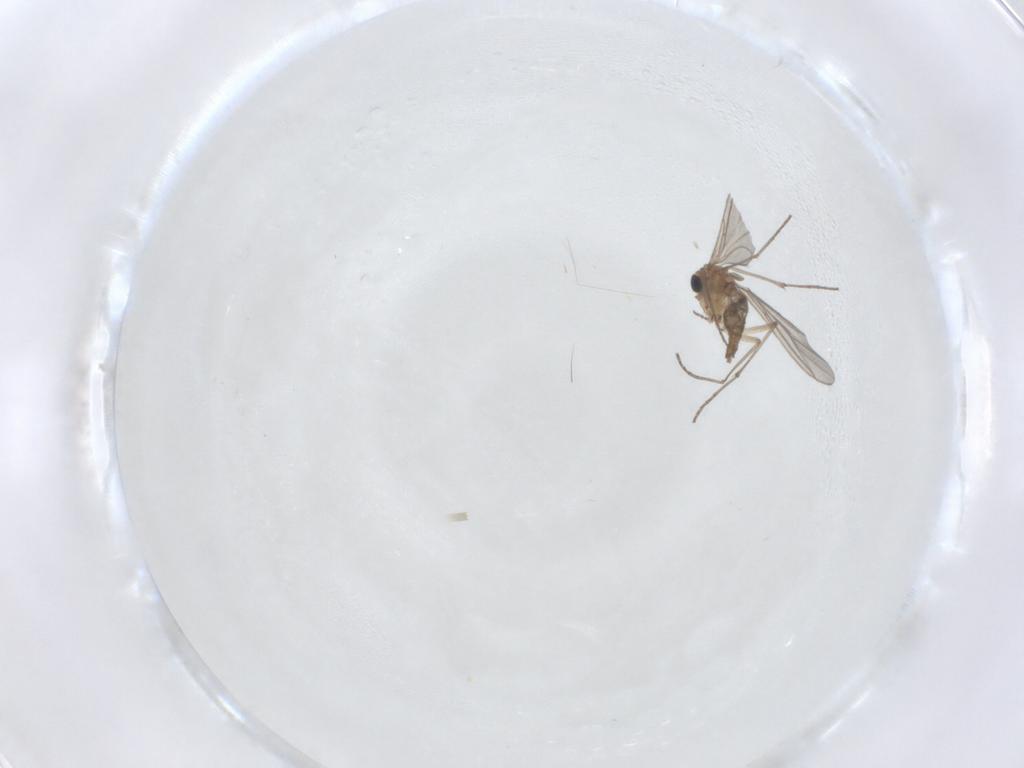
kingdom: Animalia
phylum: Arthropoda
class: Insecta
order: Diptera
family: Sciaridae
